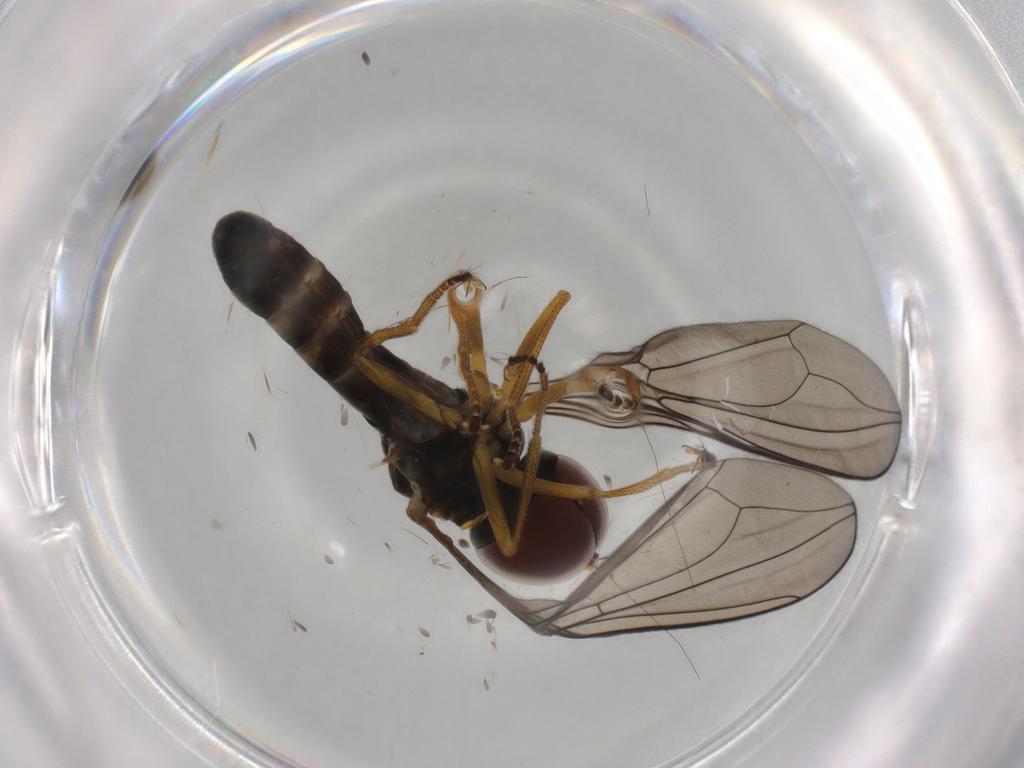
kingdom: Animalia
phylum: Arthropoda
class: Insecta
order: Diptera
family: Pipunculidae
